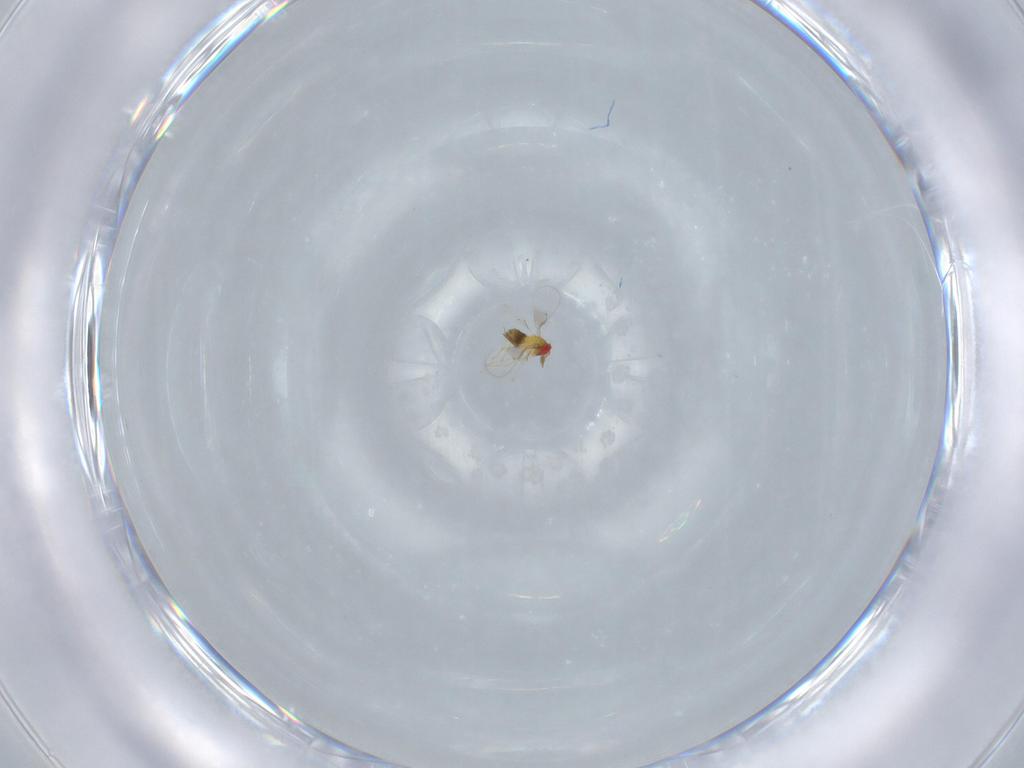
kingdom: Animalia
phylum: Arthropoda
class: Insecta
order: Hymenoptera
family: Trichogrammatidae
